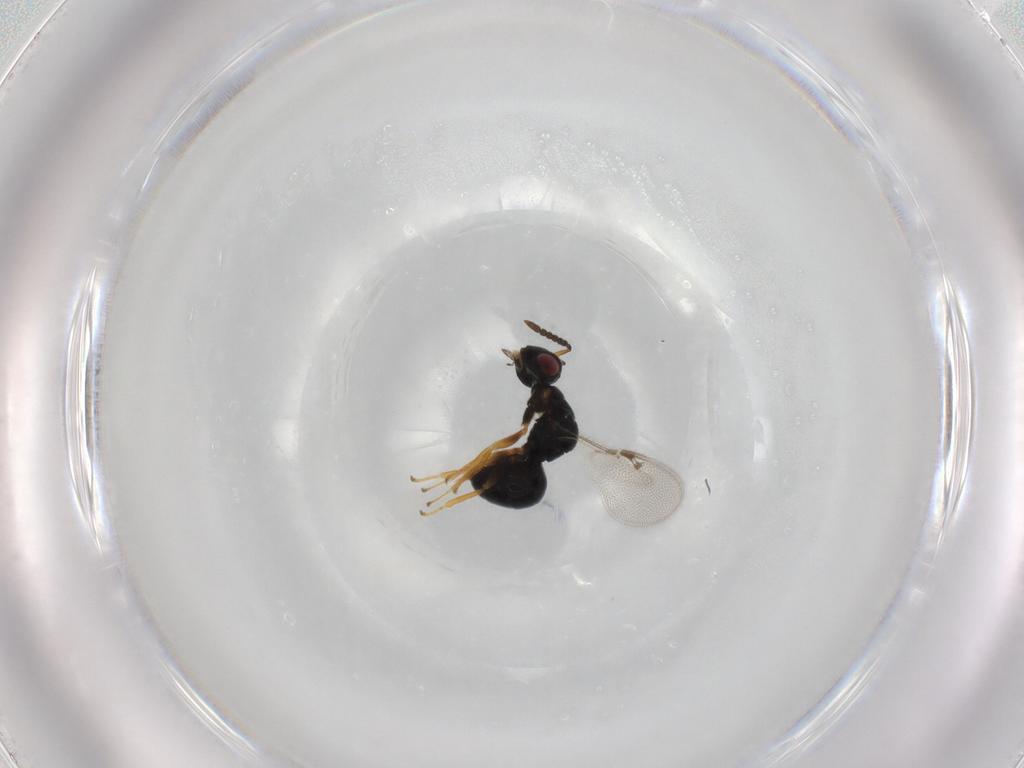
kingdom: Animalia
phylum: Arthropoda
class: Insecta
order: Hymenoptera
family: Eurytomidae
